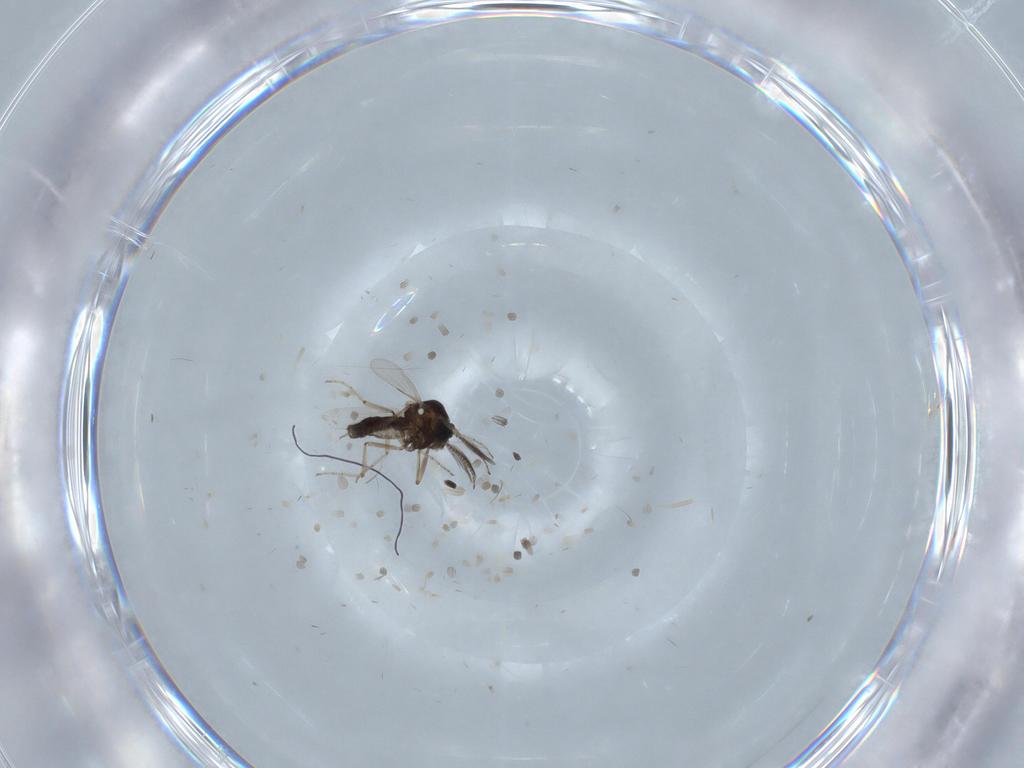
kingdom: Animalia
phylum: Arthropoda
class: Insecta
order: Diptera
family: Ceratopogonidae
